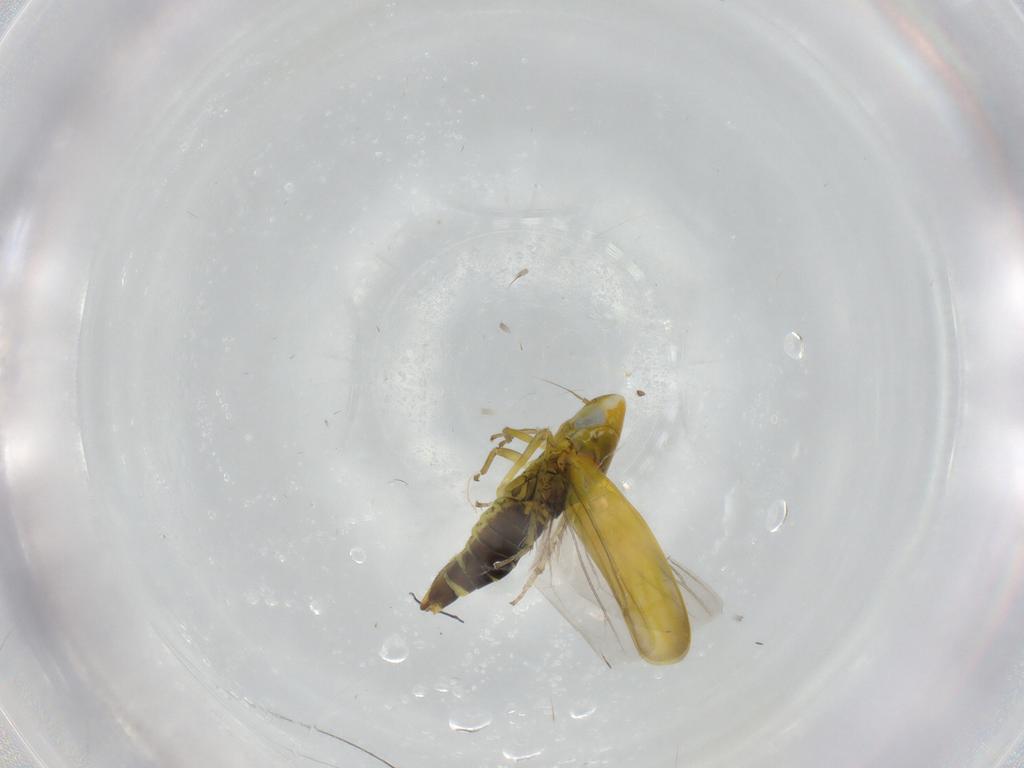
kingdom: Animalia
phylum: Arthropoda
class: Insecta
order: Hemiptera
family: Cicadellidae
